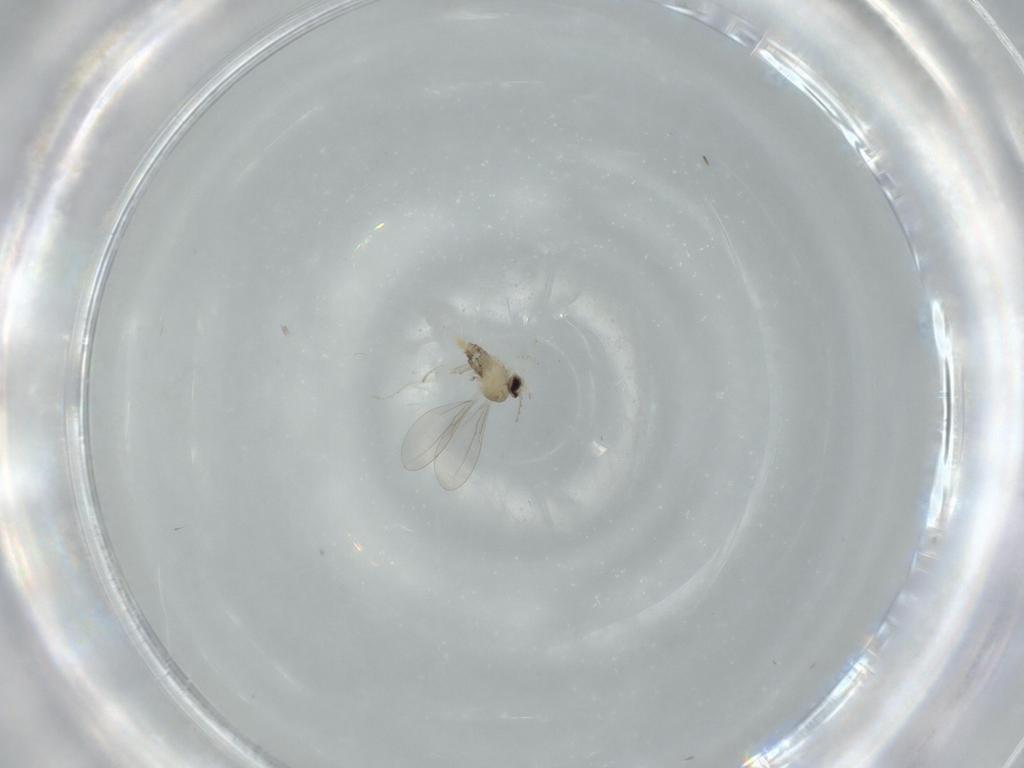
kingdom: Animalia
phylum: Arthropoda
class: Insecta
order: Diptera
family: Cecidomyiidae
